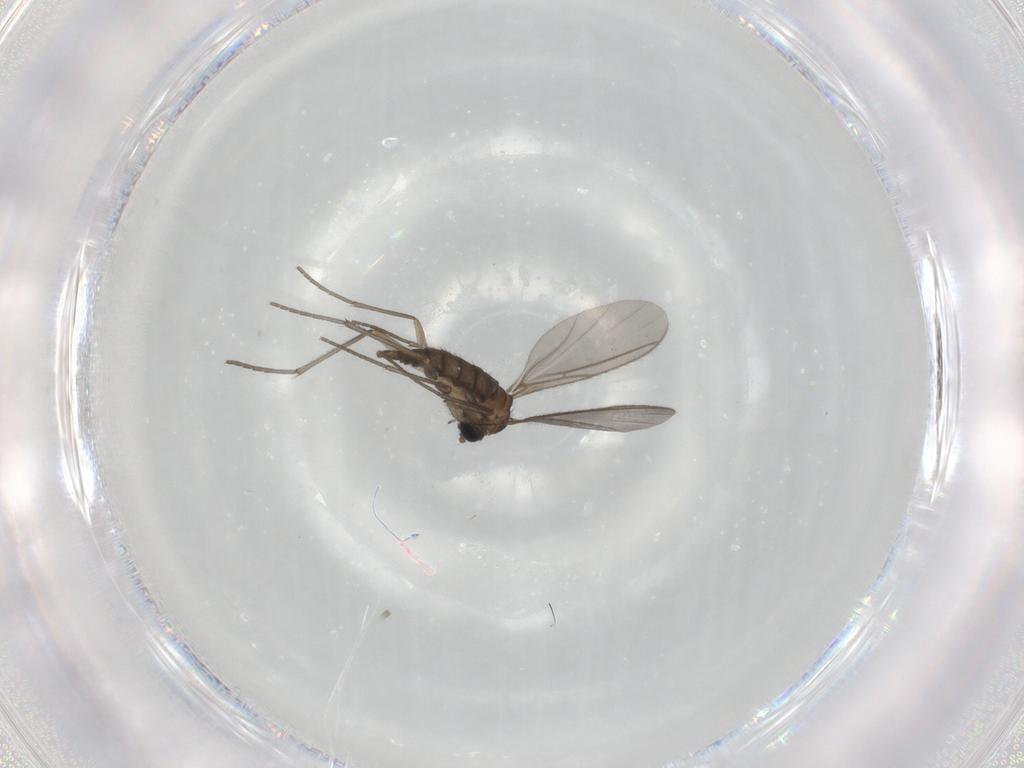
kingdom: Animalia
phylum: Arthropoda
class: Insecta
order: Diptera
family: Sciaridae
